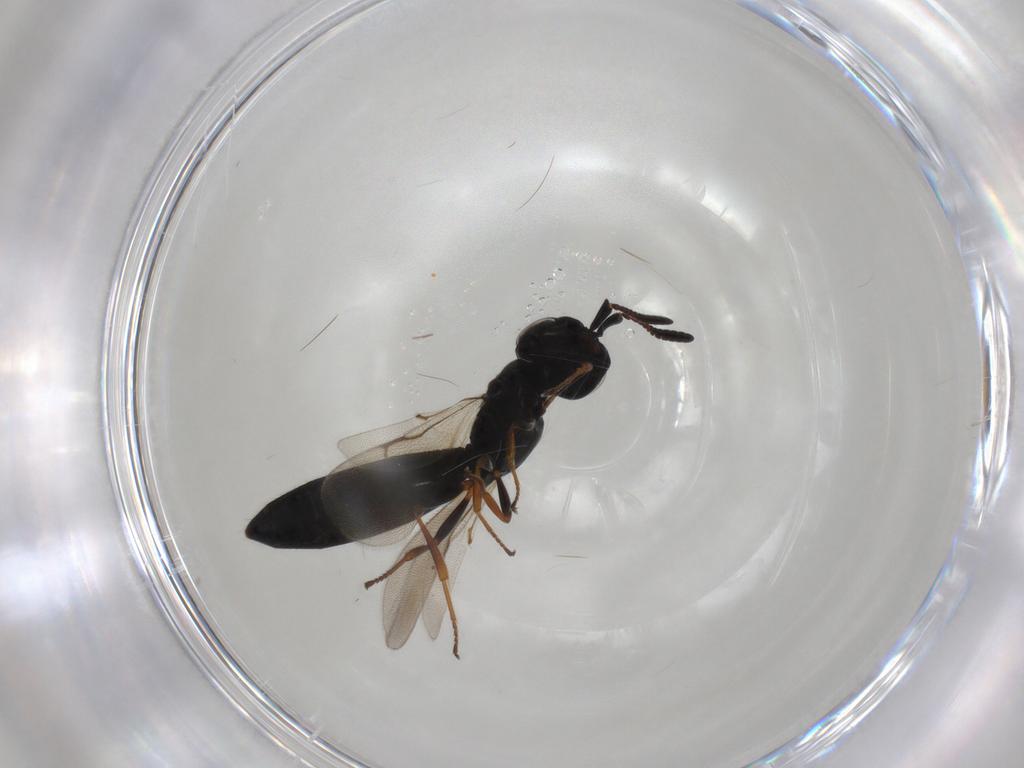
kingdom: Animalia
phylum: Arthropoda
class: Insecta
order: Hymenoptera
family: Scelionidae
